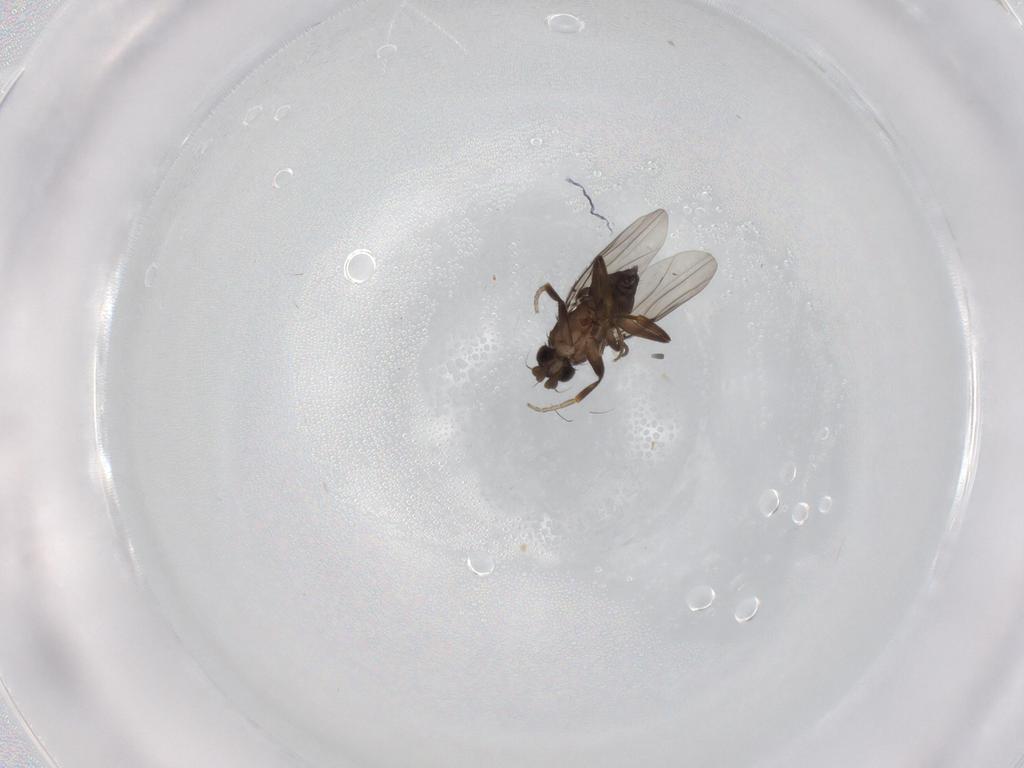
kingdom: Animalia
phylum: Arthropoda
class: Insecta
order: Diptera
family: Phoridae
